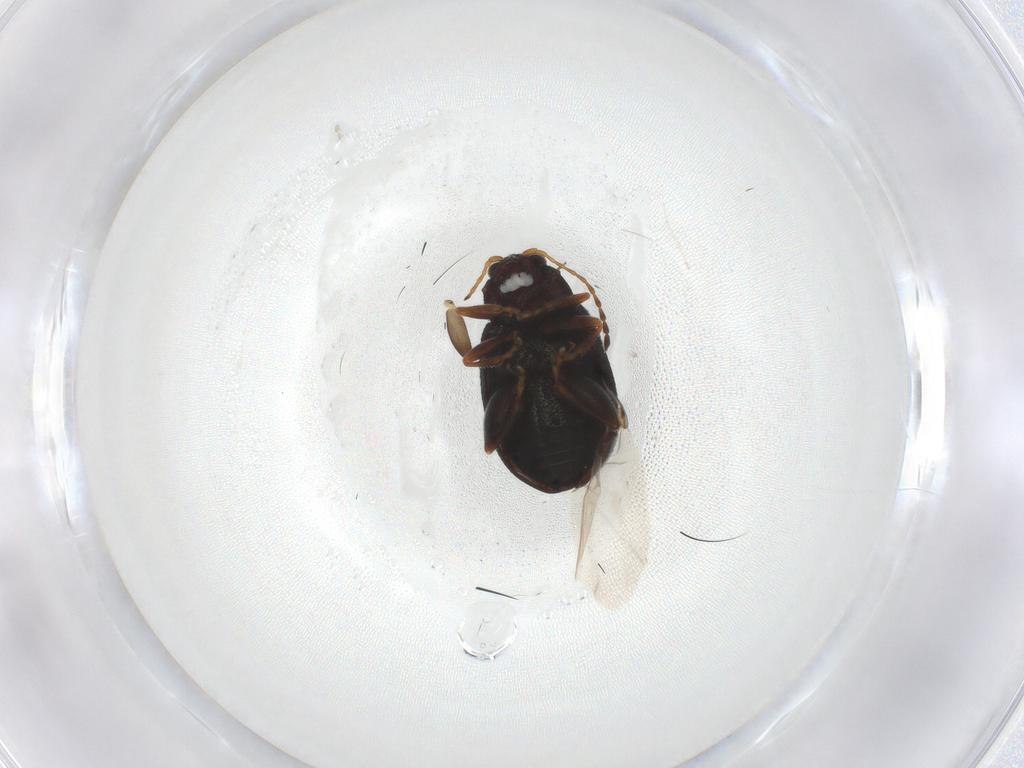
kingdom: Animalia
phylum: Arthropoda
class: Insecta
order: Coleoptera
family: Chrysomelidae
